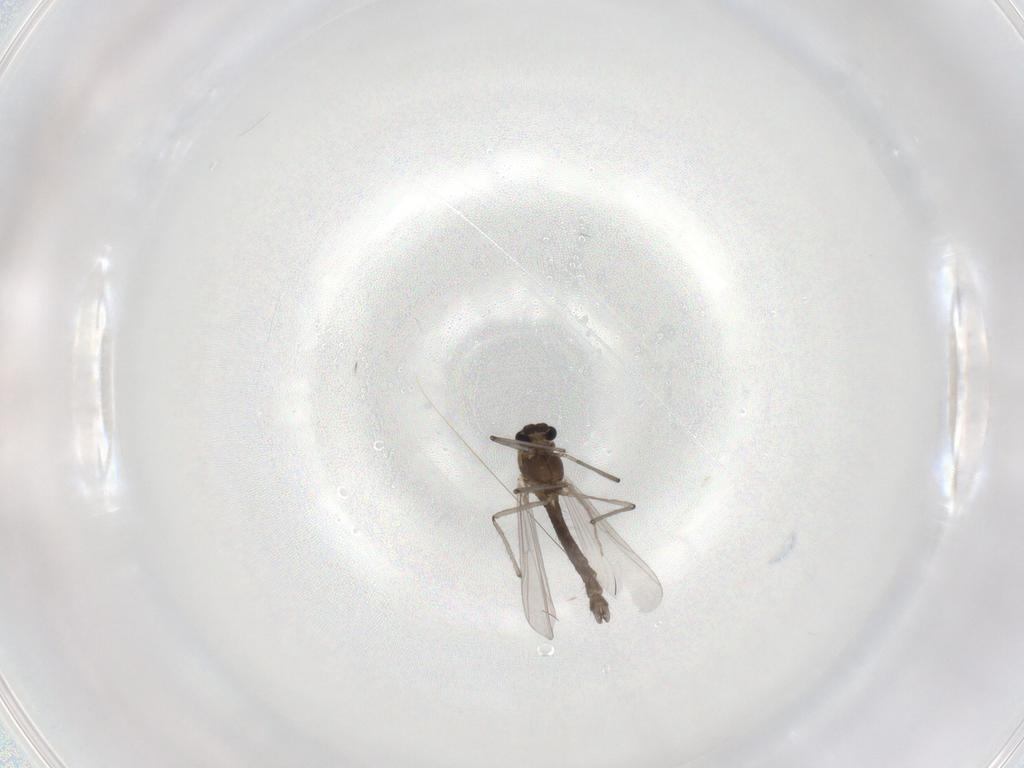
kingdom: Animalia
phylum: Arthropoda
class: Insecta
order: Diptera
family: Chironomidae
